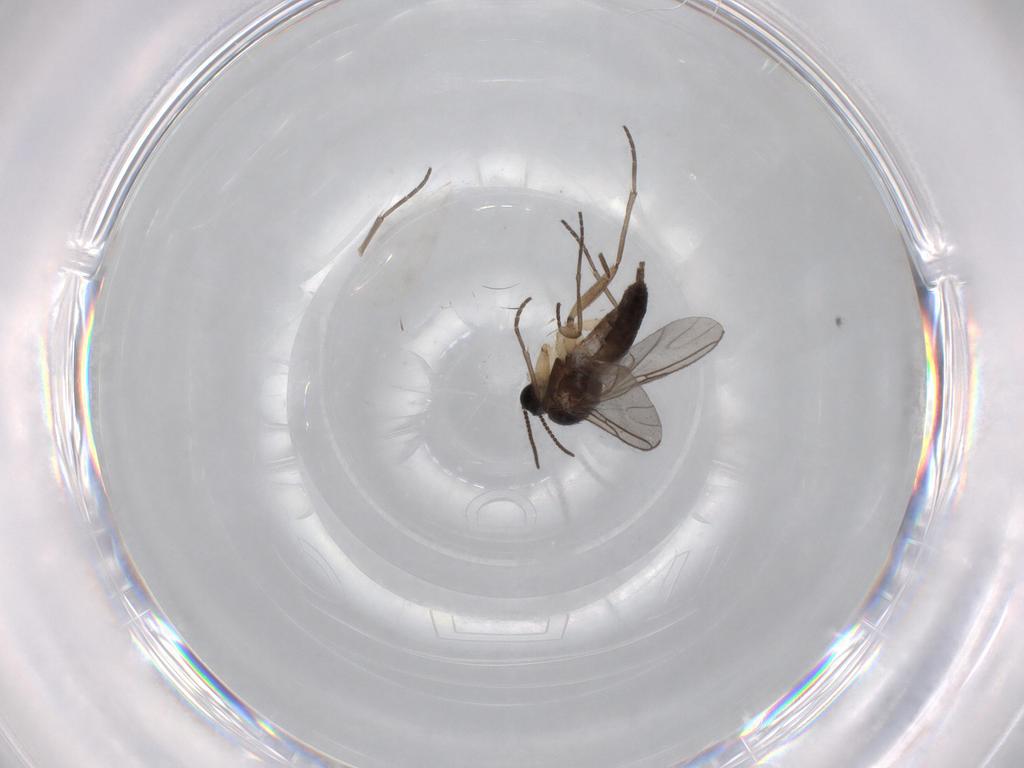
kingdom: Animalia
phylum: Arthropoda
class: Insecta
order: Diptera
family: Sciaridae
